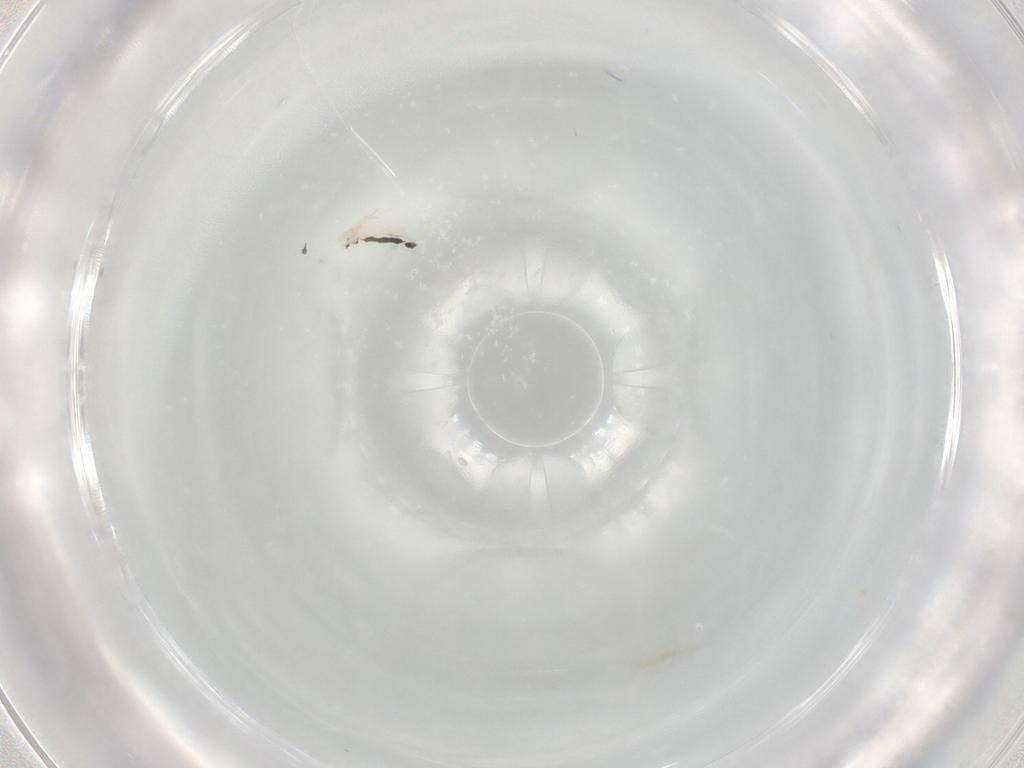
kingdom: Animalia
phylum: Arthropoda
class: Collembola
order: Entomobryomorpha
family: Entomobryidae
